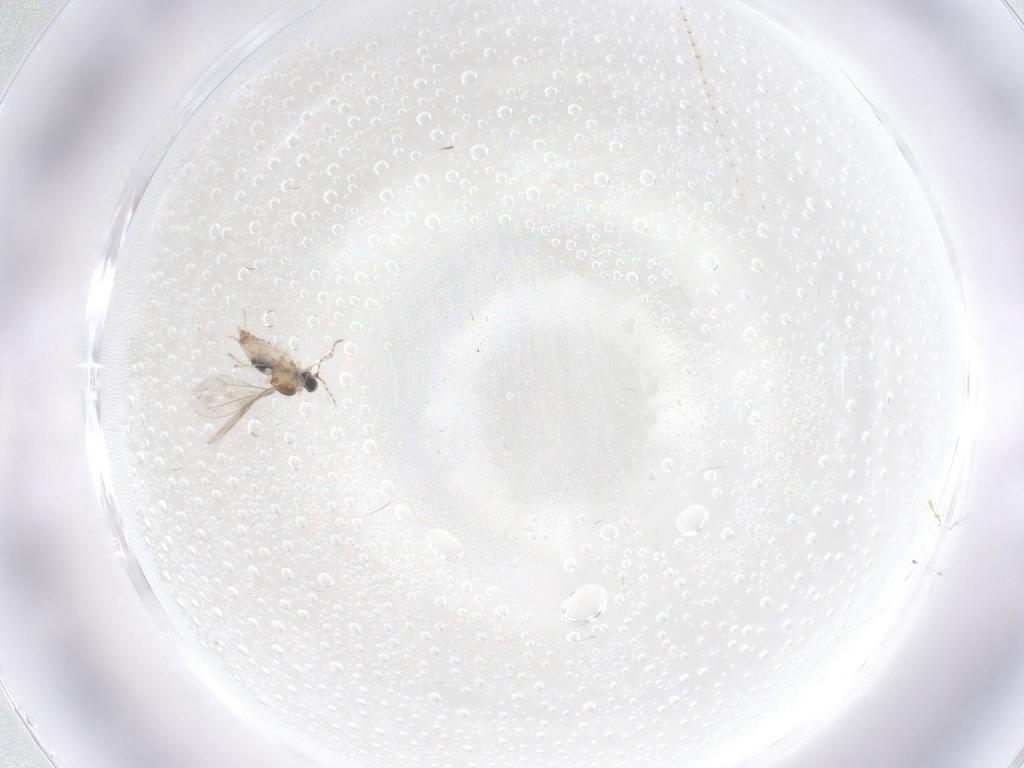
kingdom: Animalia
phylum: Arthropoda
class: Insecta
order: Diptera
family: Cecidomyiidae
